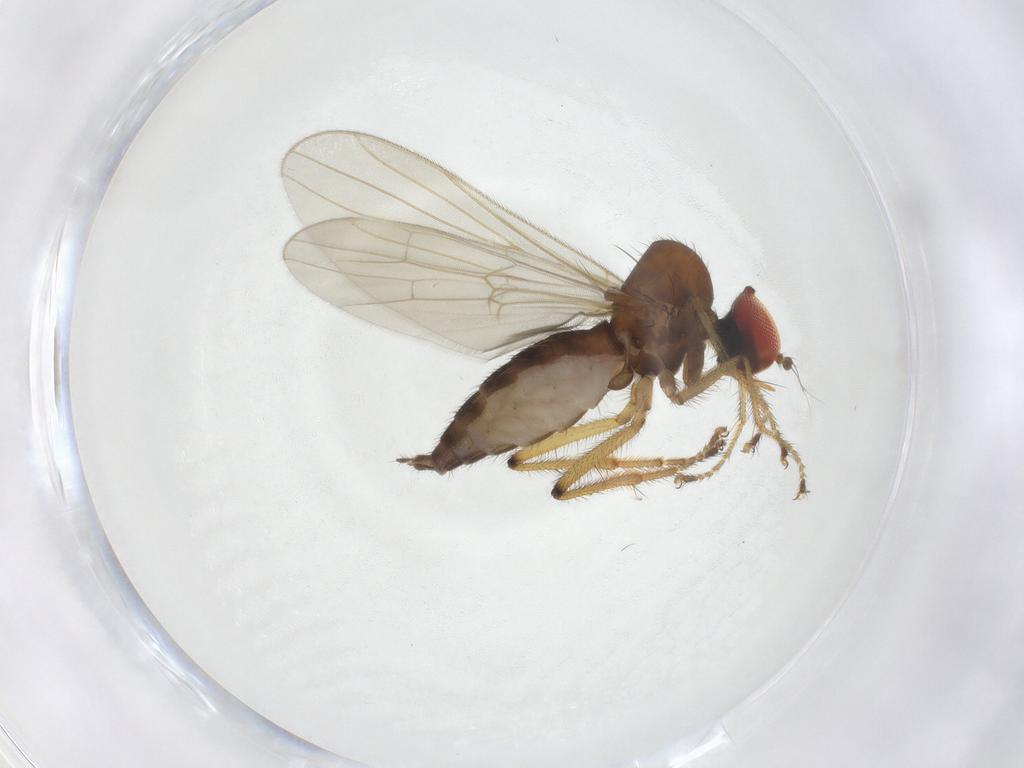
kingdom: Animalia
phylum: Arthropoda
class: Insecta
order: Diptera
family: Hybotidae
